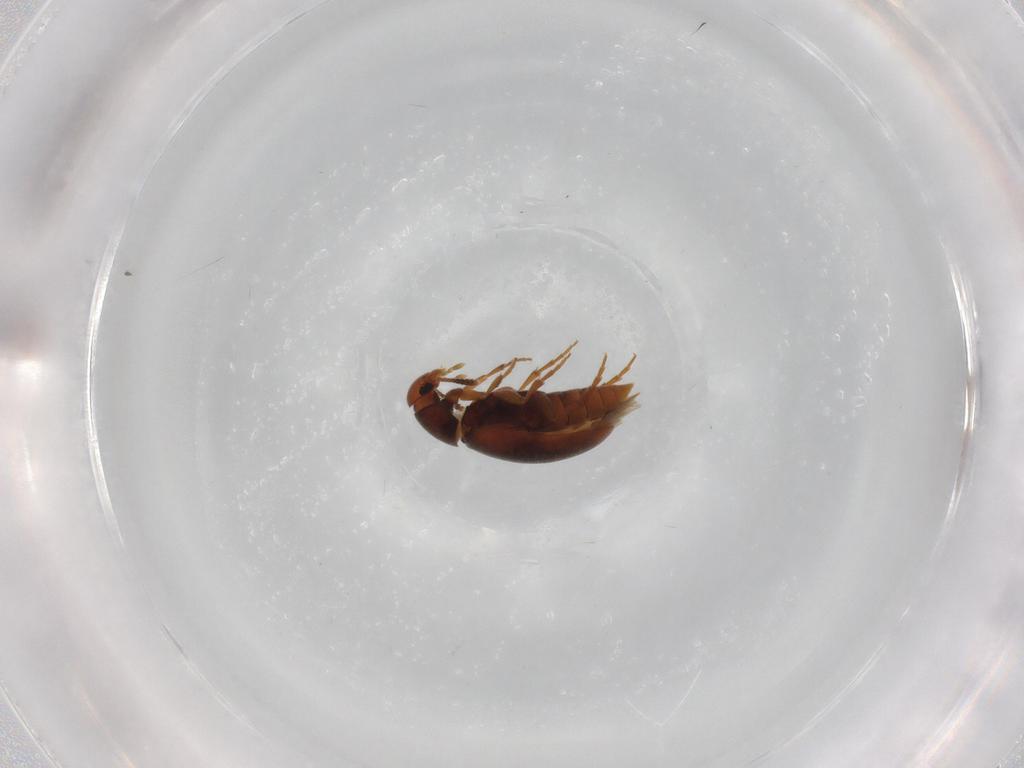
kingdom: Animalia
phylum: Arthropoda
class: Insecta
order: Coleoptera
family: Scraptiidae
